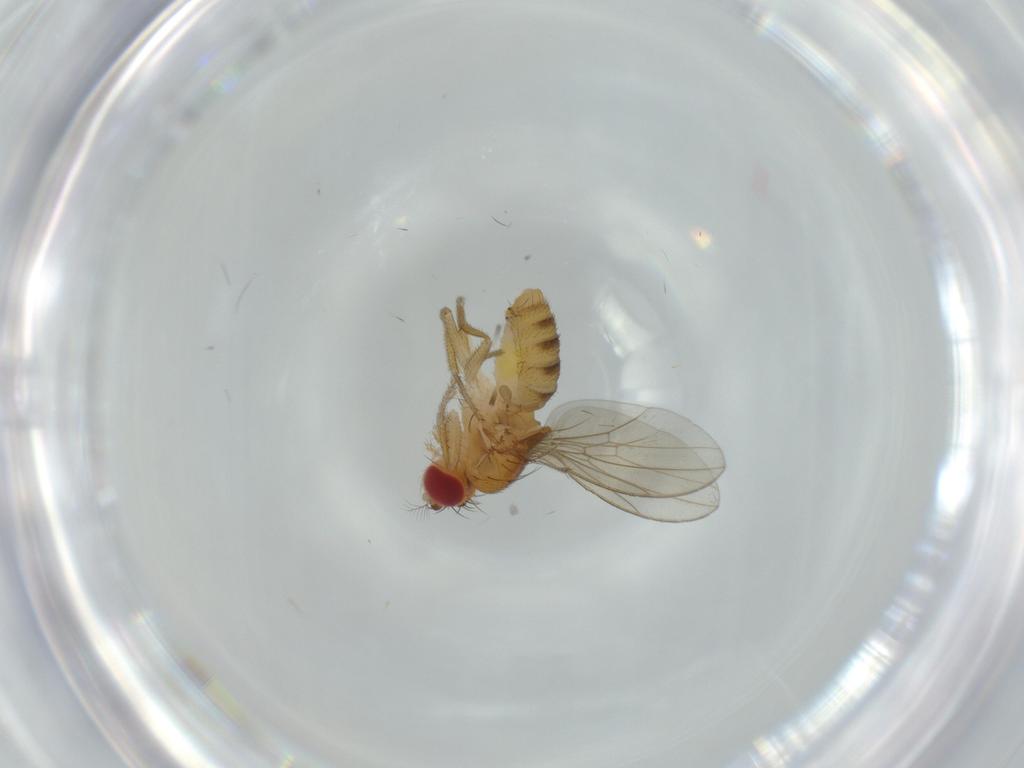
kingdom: Animalia
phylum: Arthropoda
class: Insecta
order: Diptera
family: Drosophilidae
